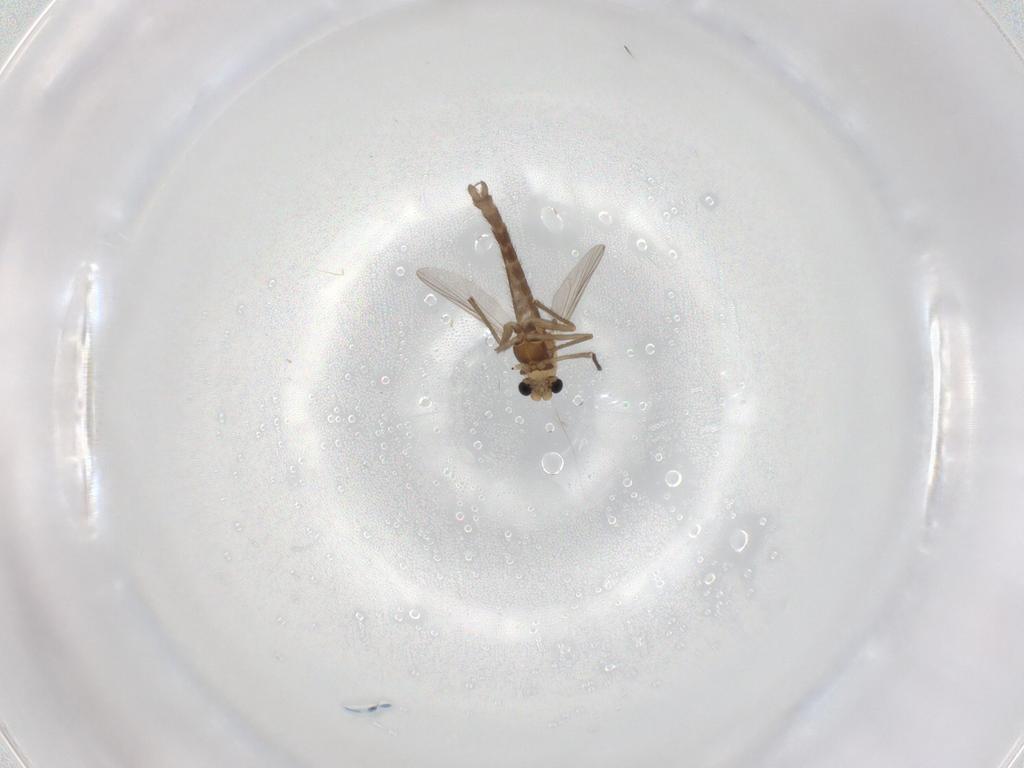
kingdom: Animalia
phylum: Arthropoda
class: Insecta
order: Diptera
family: Chironomidae
